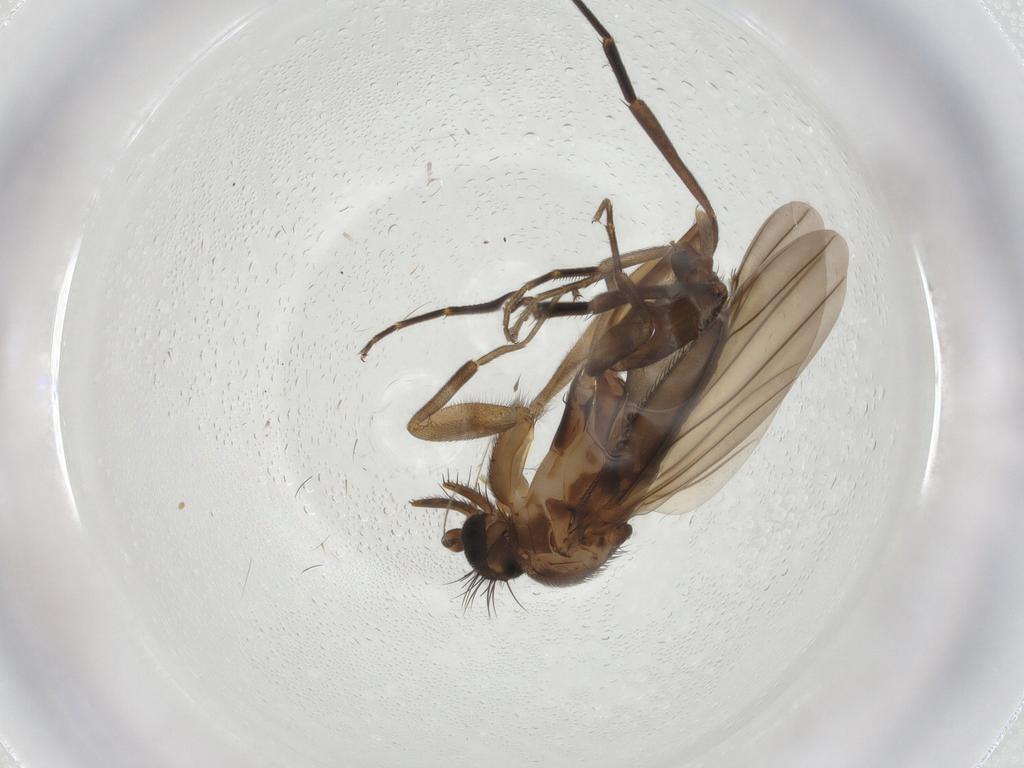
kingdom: Animalia
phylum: Arthropoda
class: Insecta
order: Diptera
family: Phoridae
